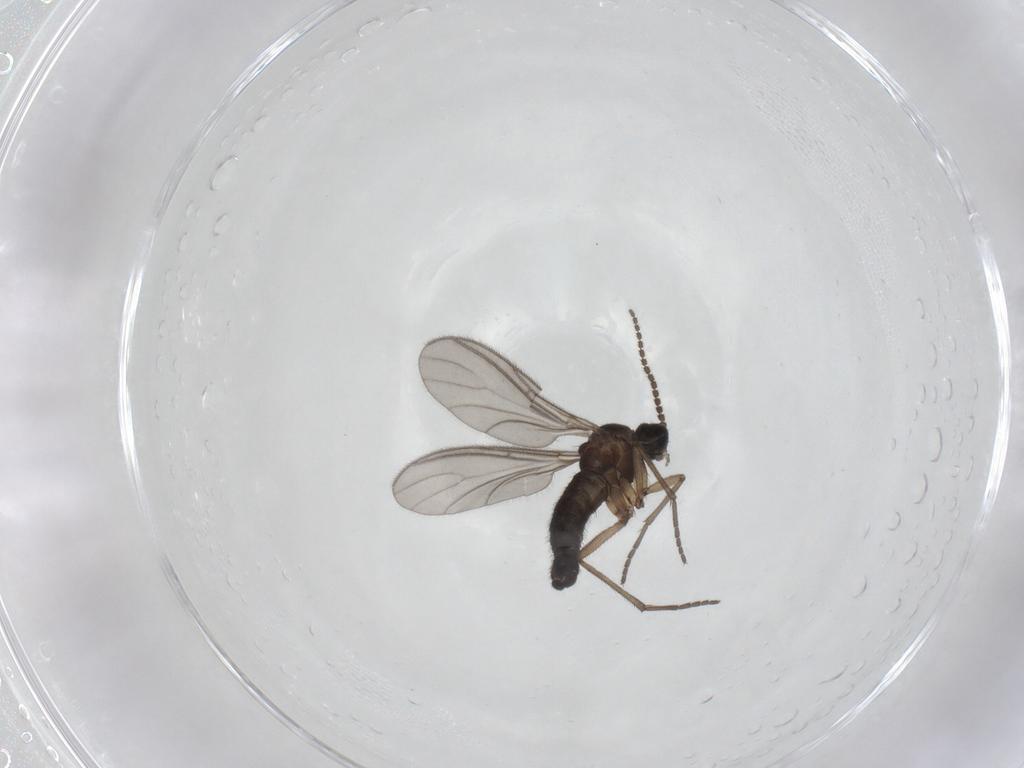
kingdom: Animalia
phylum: Arthropoda
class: Insecta
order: Diptera
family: Sciaridae
